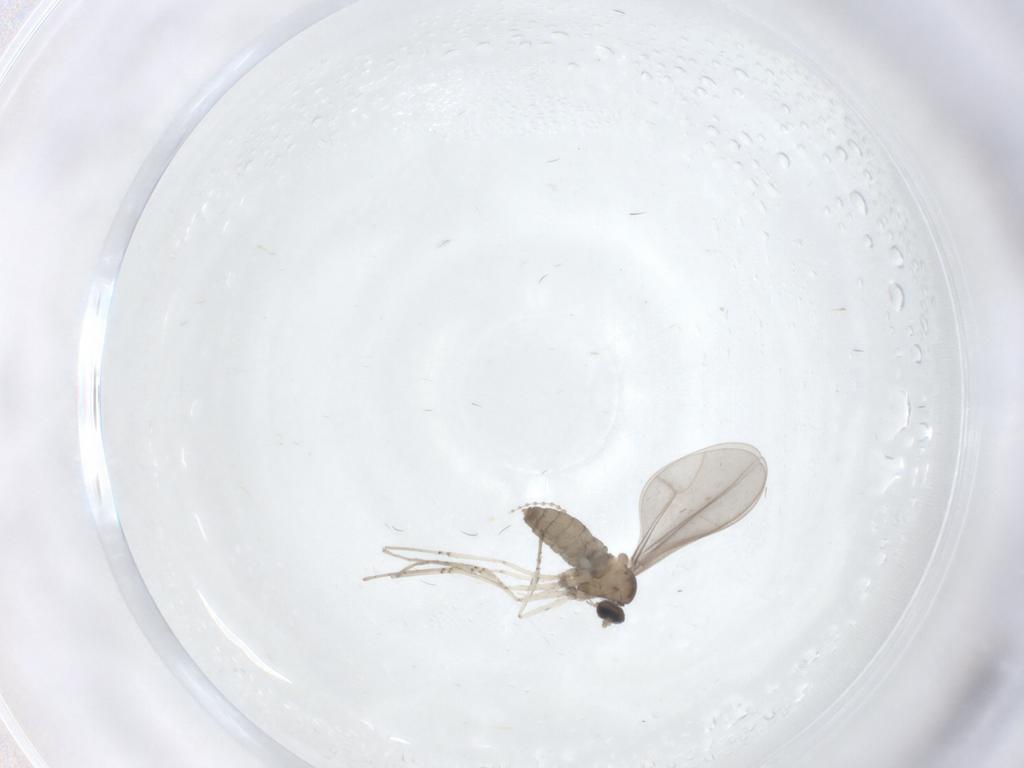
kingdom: Animalia
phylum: Arthropoda
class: Insecta
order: Diptera
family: Cecidomyiidae
